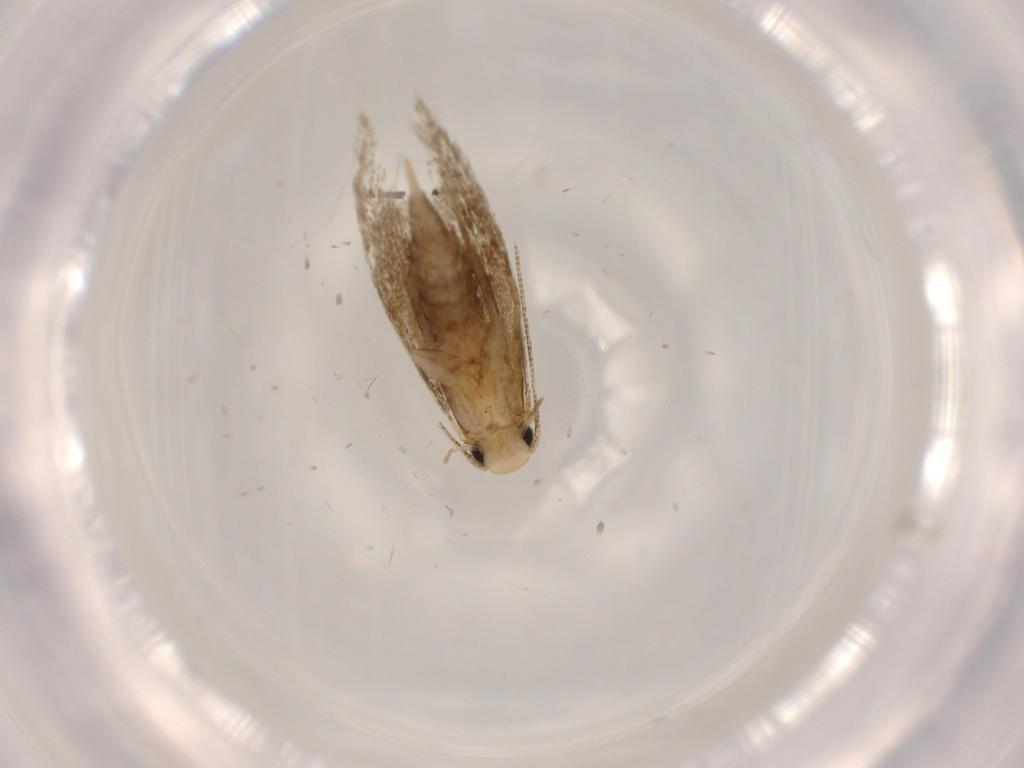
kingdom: Animalia
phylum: Arthropoda
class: Insecta
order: Lepidoptera
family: Tineidae
